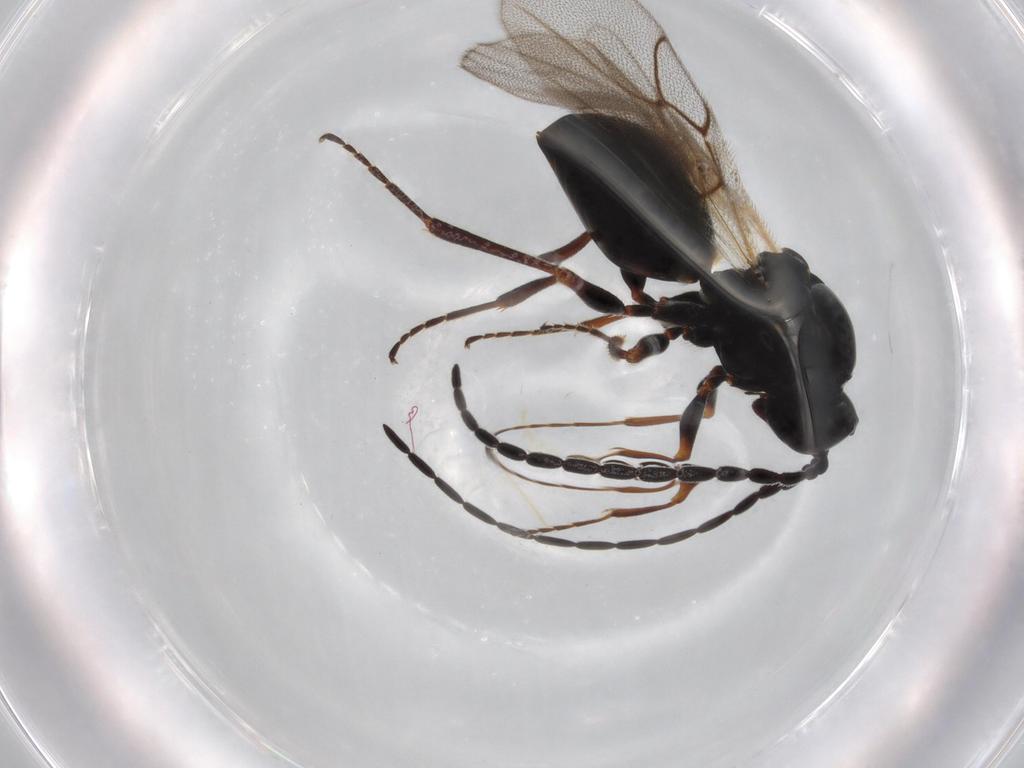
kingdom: Animalia
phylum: Arthropoda
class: Insecta
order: Hymenoptera
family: Figitidae
